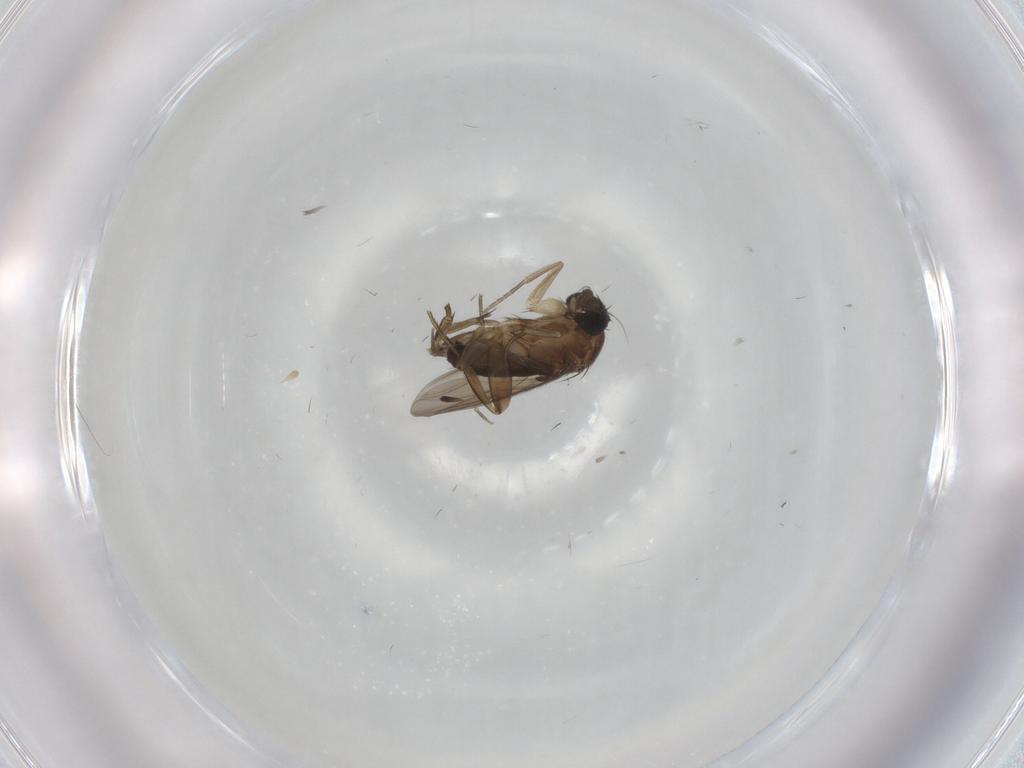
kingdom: Animalia
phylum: Arthropoda
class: Insecta
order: Diptera
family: Phoridae
